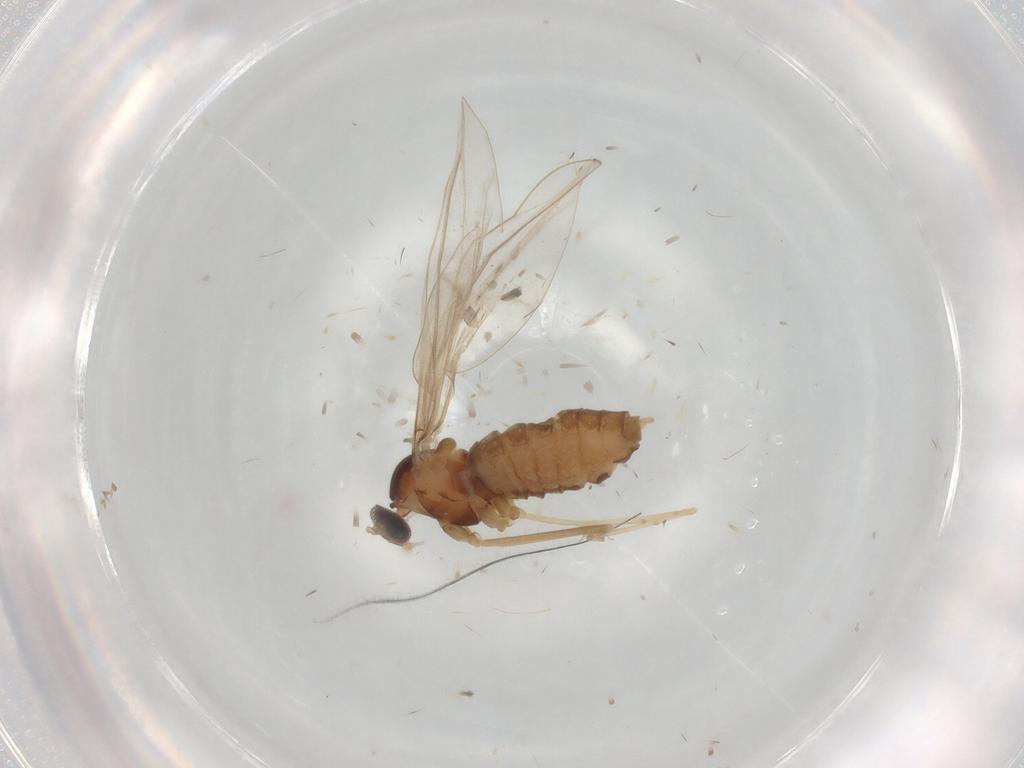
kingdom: Animalia
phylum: Arthropoda
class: Insecta
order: Diptera
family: Cecidomyiidae
